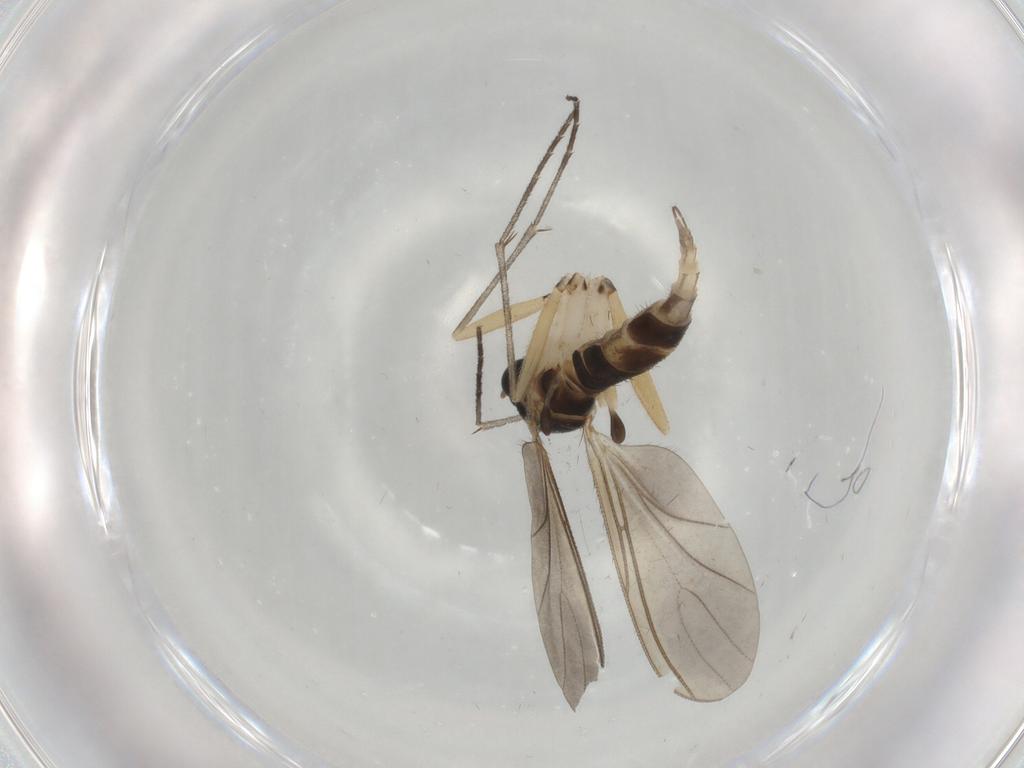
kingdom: Animalia
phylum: Arthropoda
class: Insecta
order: Diptera
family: Sciaridae
